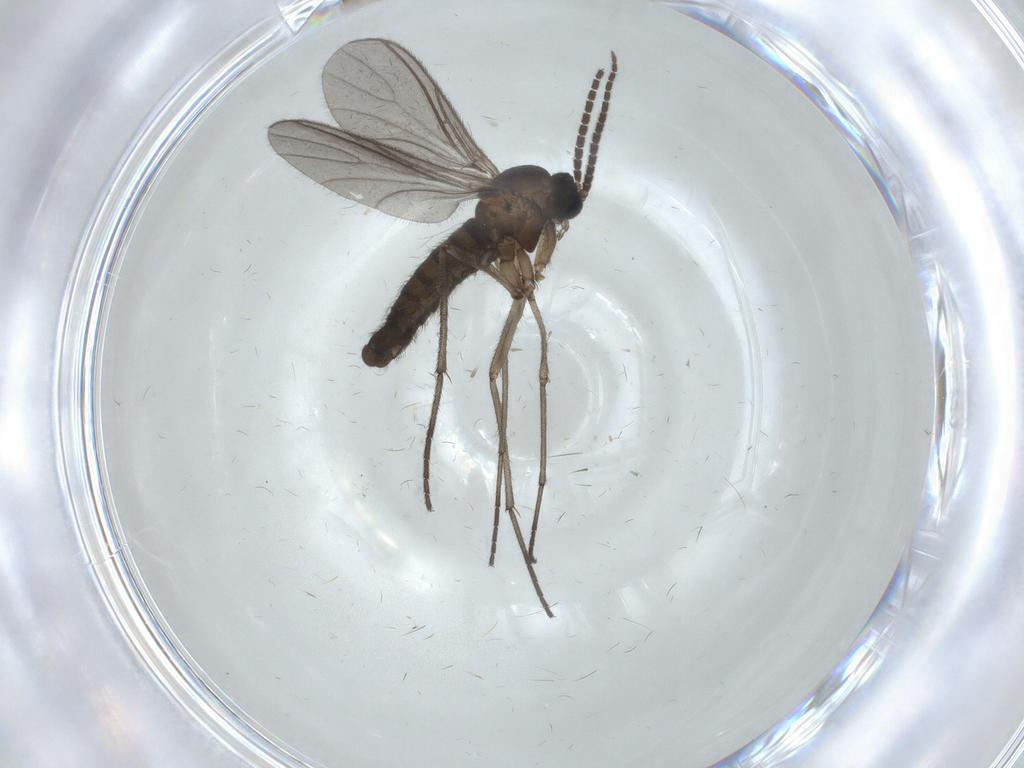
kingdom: Animalia
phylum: Arthropoda
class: Insecta
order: Diptera
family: Sciaridae
